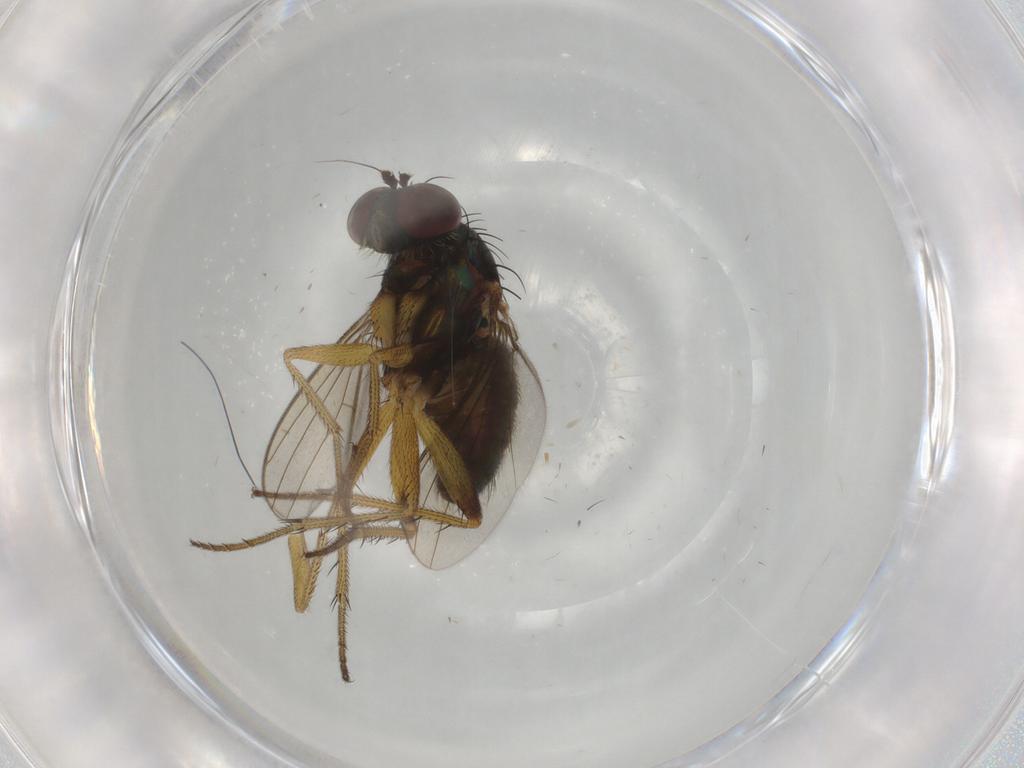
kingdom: Animalia
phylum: Arthropoda
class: Insecta
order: Diptera
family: Dolichopodidae
